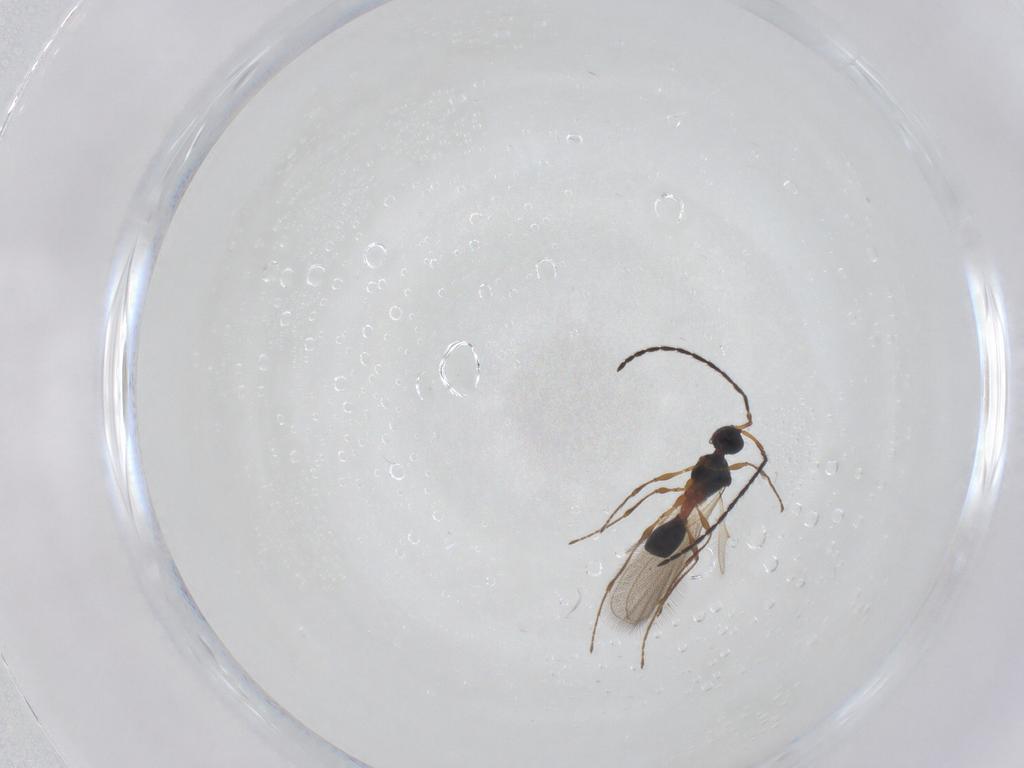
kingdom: Animalia
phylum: Arthropoda
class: Insecta
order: Hymenoptera
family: Diapriidae
